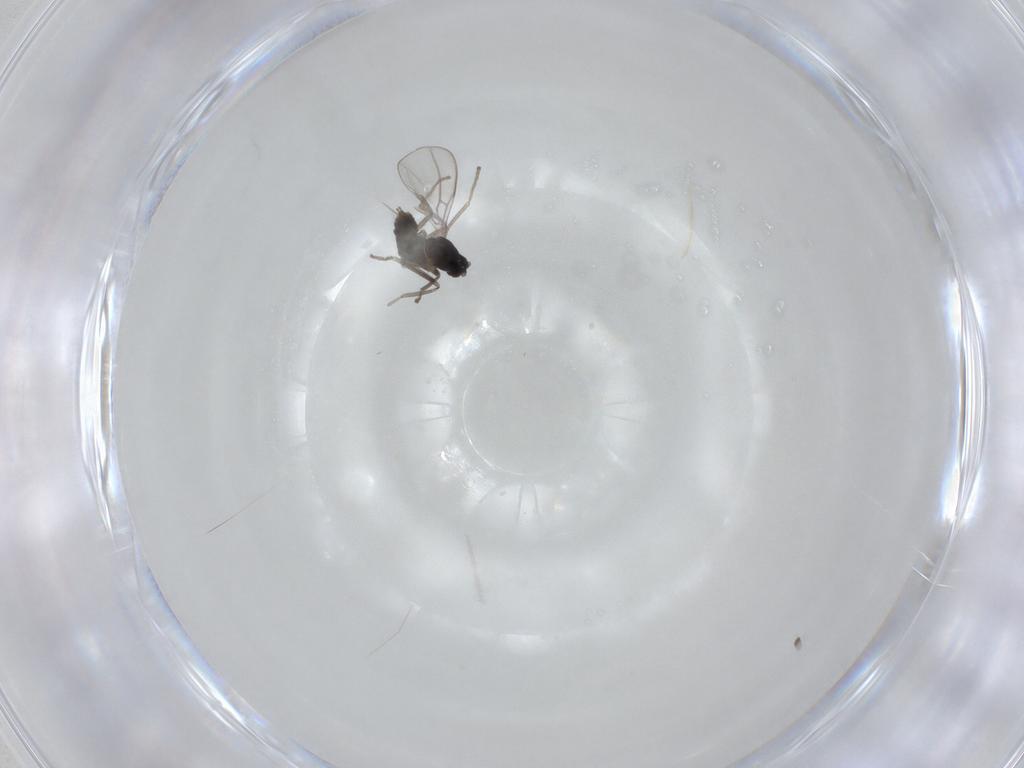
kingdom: Animalia
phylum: Arthropoda
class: Insecta
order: Diptera
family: Cecidomyiidae
